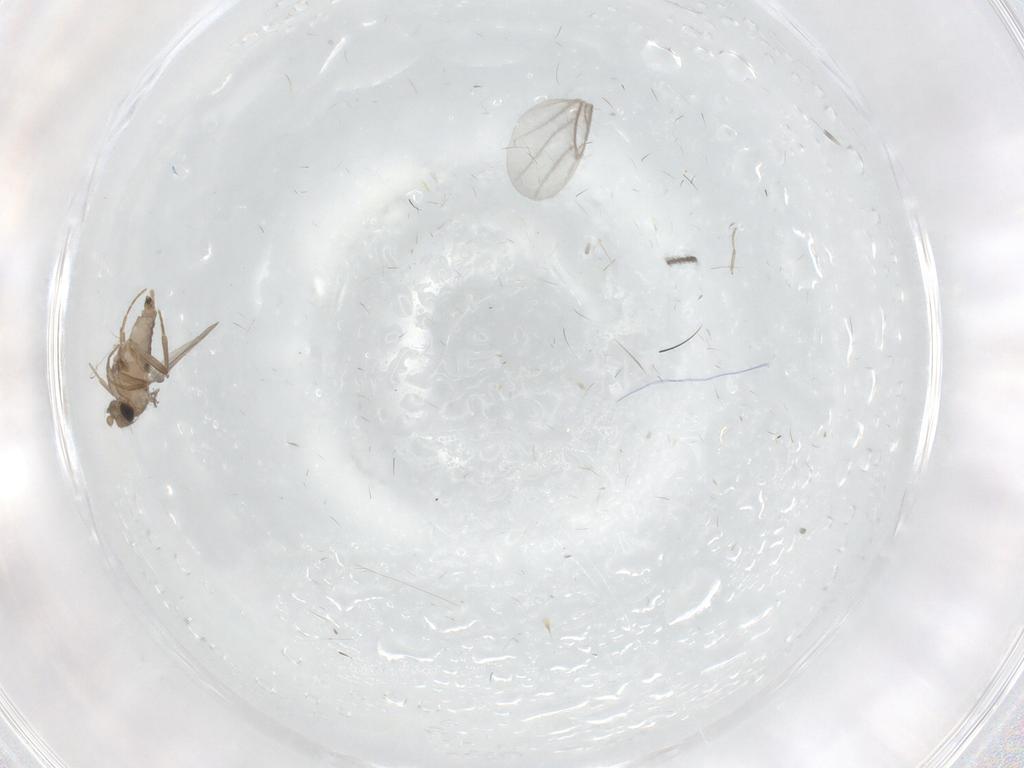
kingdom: Animalia
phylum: Arthropoda
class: Insecta
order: Diptera
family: Cecidomyiidae
